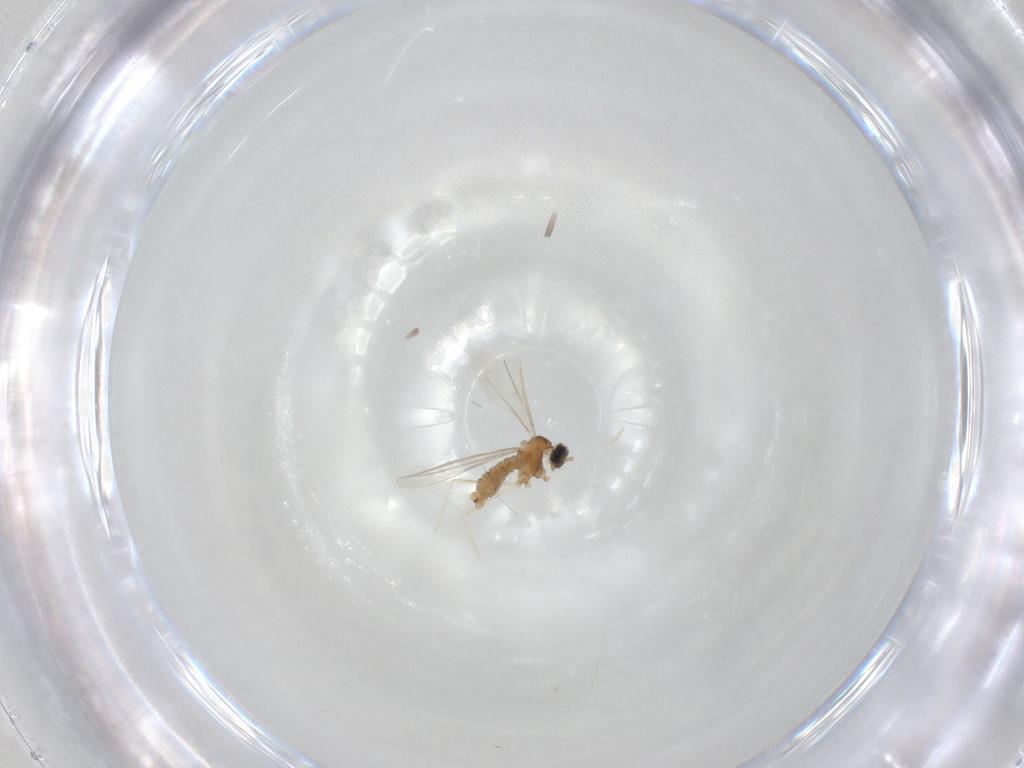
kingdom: Animalia
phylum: Arthropoda
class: Insecta
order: Diptera
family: Cecidomyiidae
